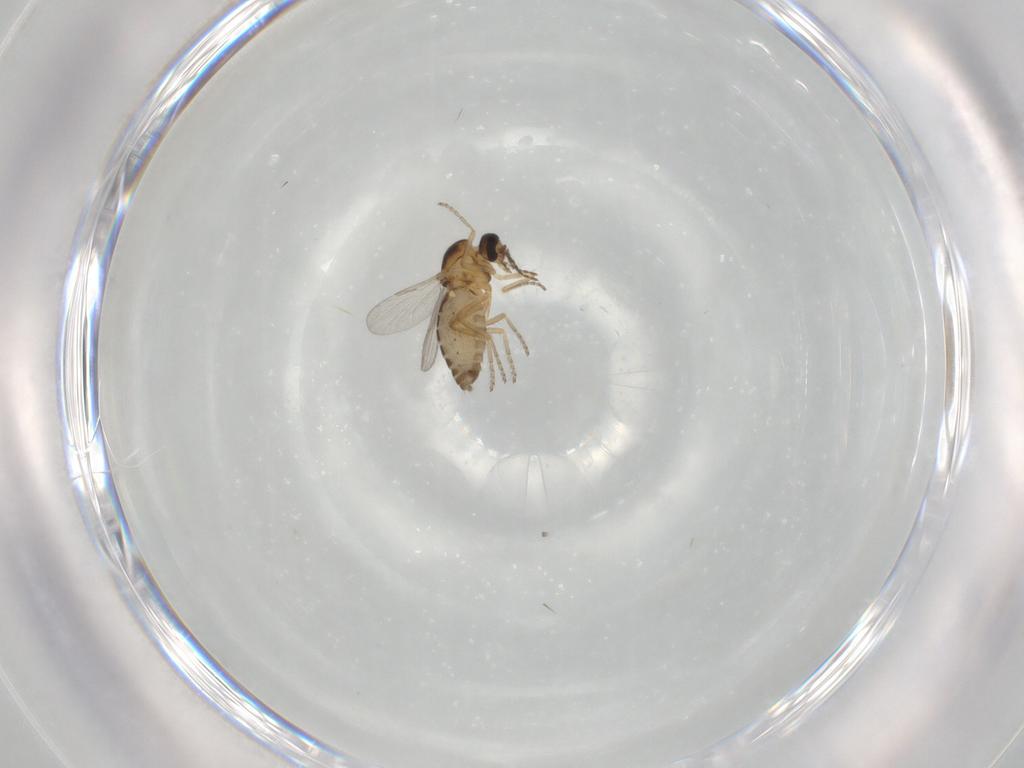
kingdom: Animalia
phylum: Arthropoda
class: Insecta
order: Diptera
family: Ceratopogonidae
